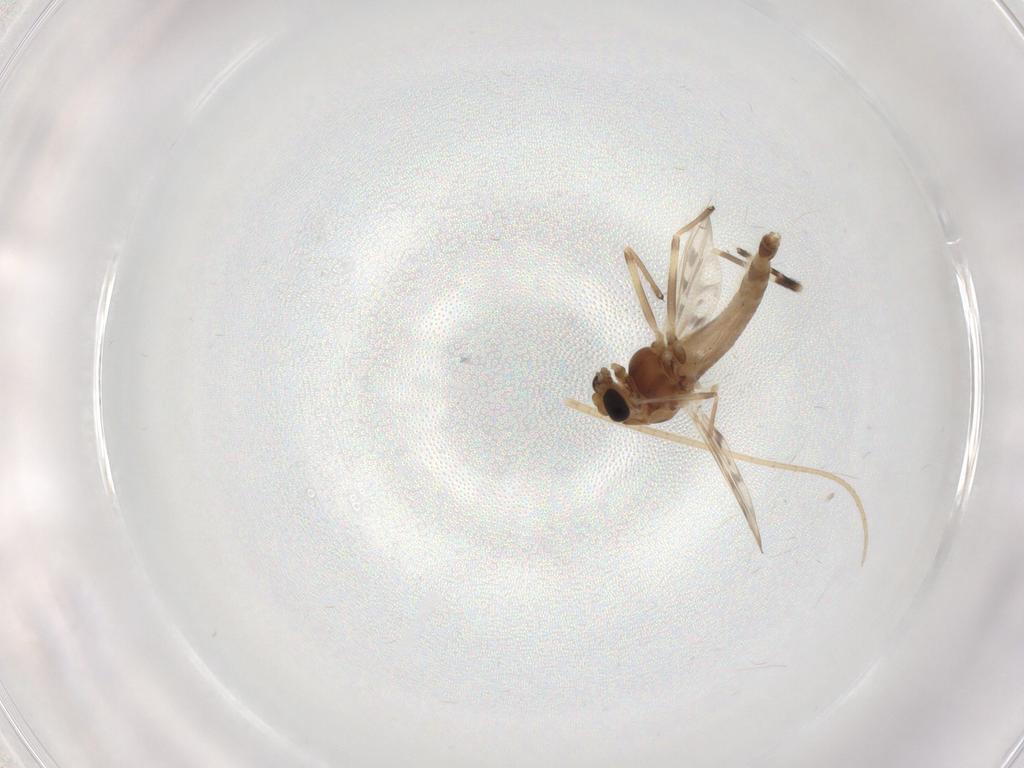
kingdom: Animalia
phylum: Arthropoda
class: Insecta
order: Diptera
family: Chironomidae
